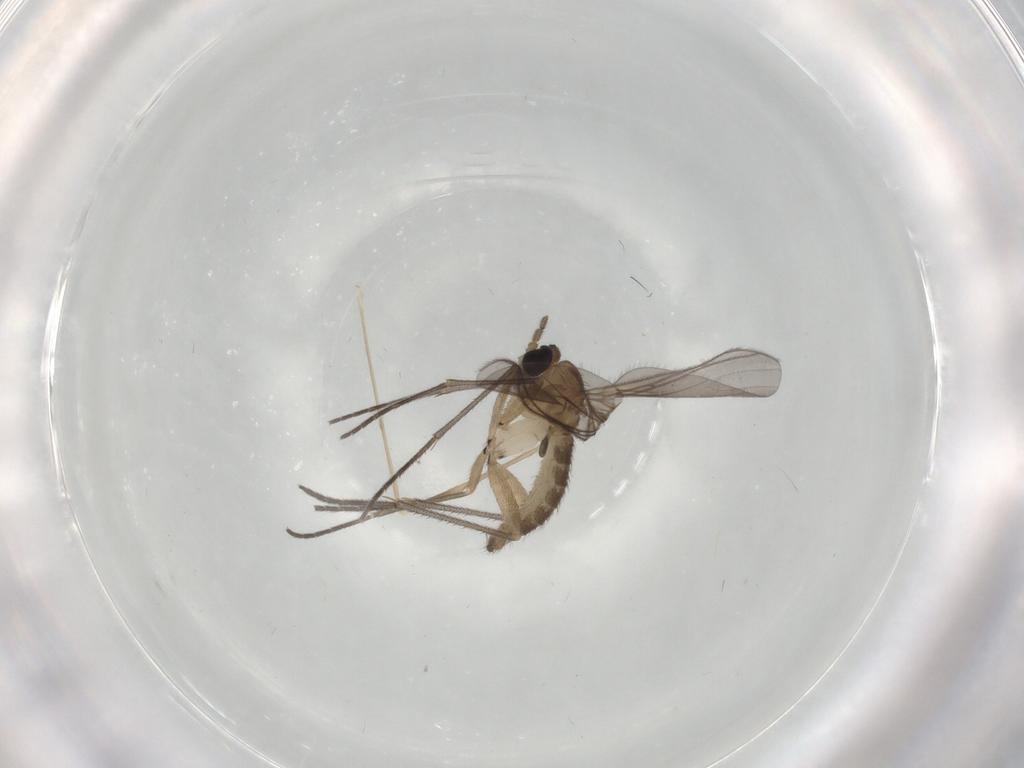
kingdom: Animalia
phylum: Arthropoda
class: Insecta
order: Diptera
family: Sciaridae
